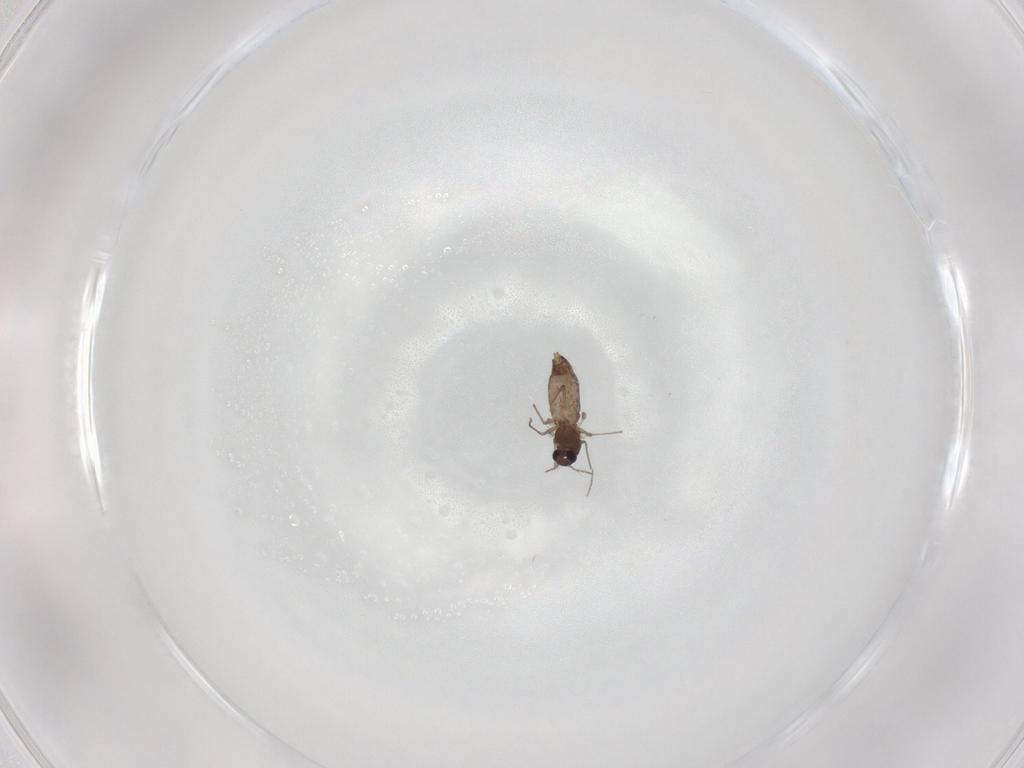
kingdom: Animalia
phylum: Arthropoda
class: Insecta
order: Diptera
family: Chironomidae
